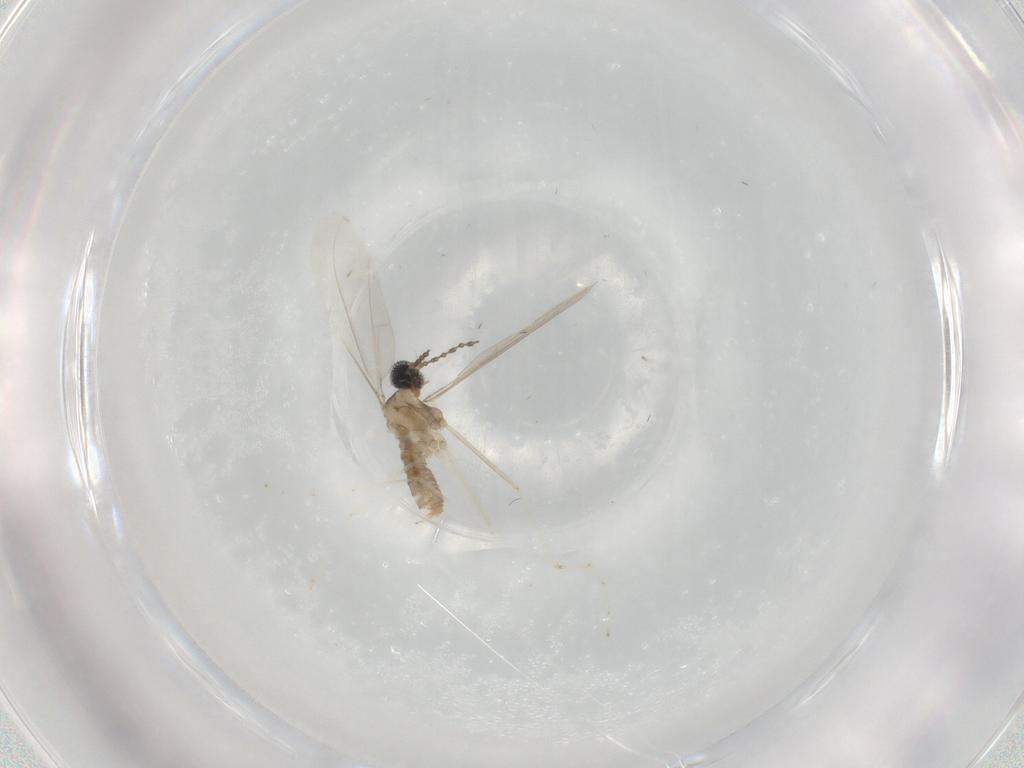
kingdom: Animalia
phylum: Arthropoda
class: Insecta
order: Diptera
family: Cecidomyiidae
